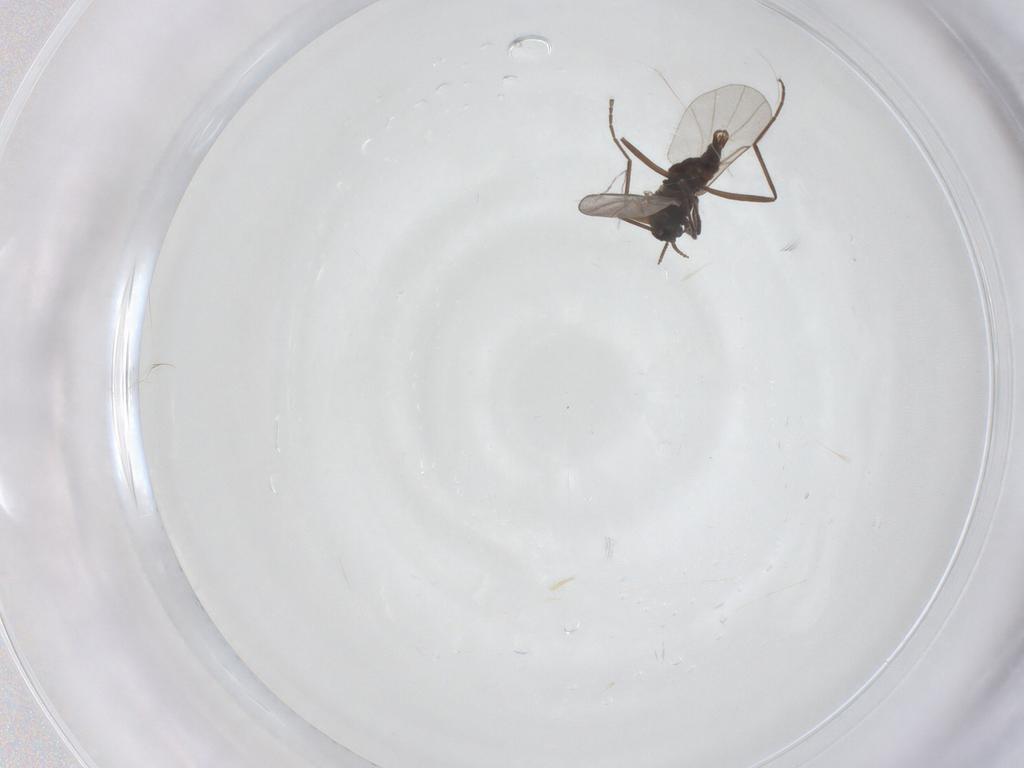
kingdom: Animalia
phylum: Arthropoda
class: Insecta
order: Diptera
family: Cecidomyiidae
